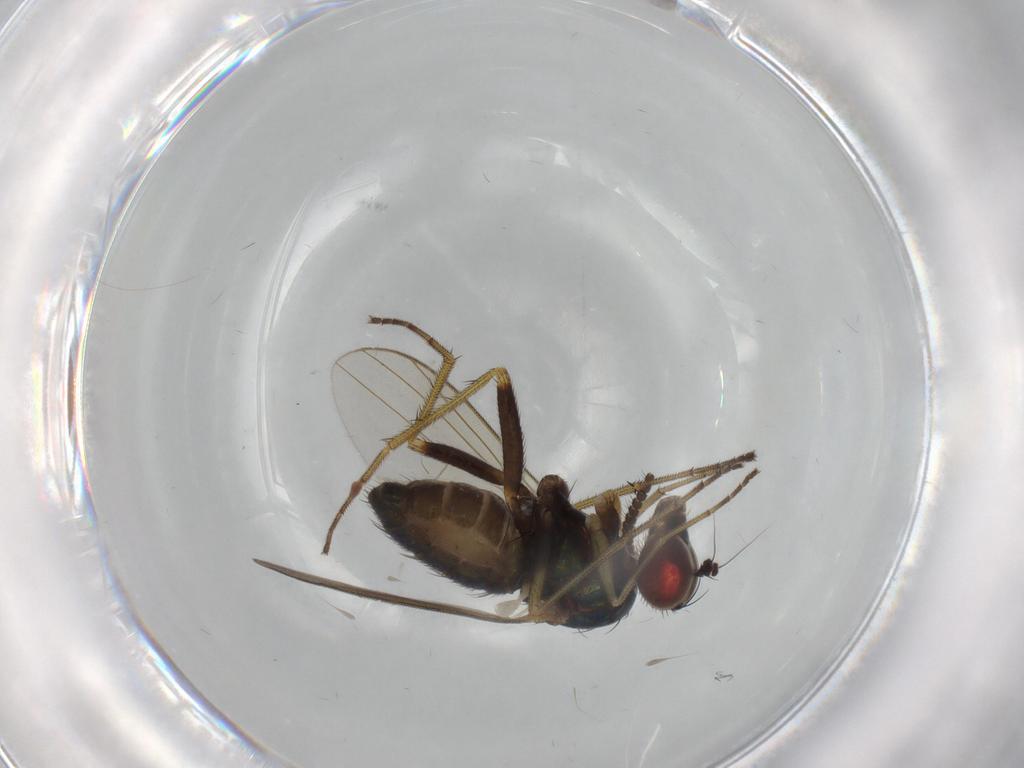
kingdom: Animalia
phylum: Arthropoda
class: Insecta
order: Diptera
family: Dolichopodidae
